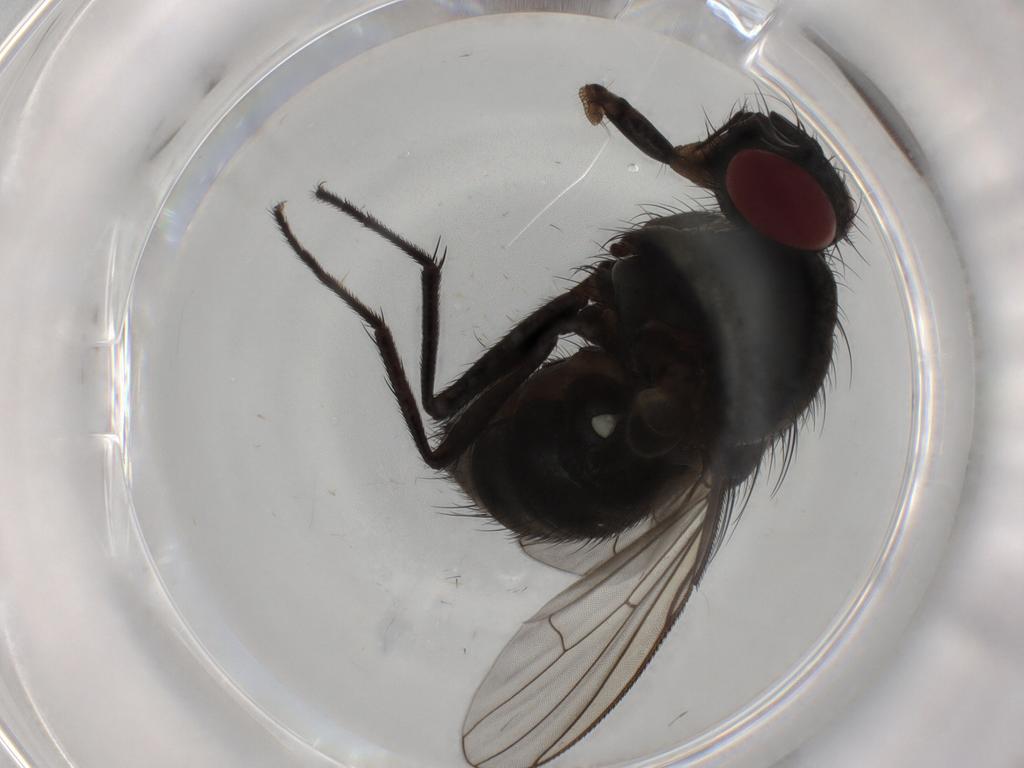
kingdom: Animalia
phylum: Arthropoda
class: Insecta
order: Diptera
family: Muscidae
